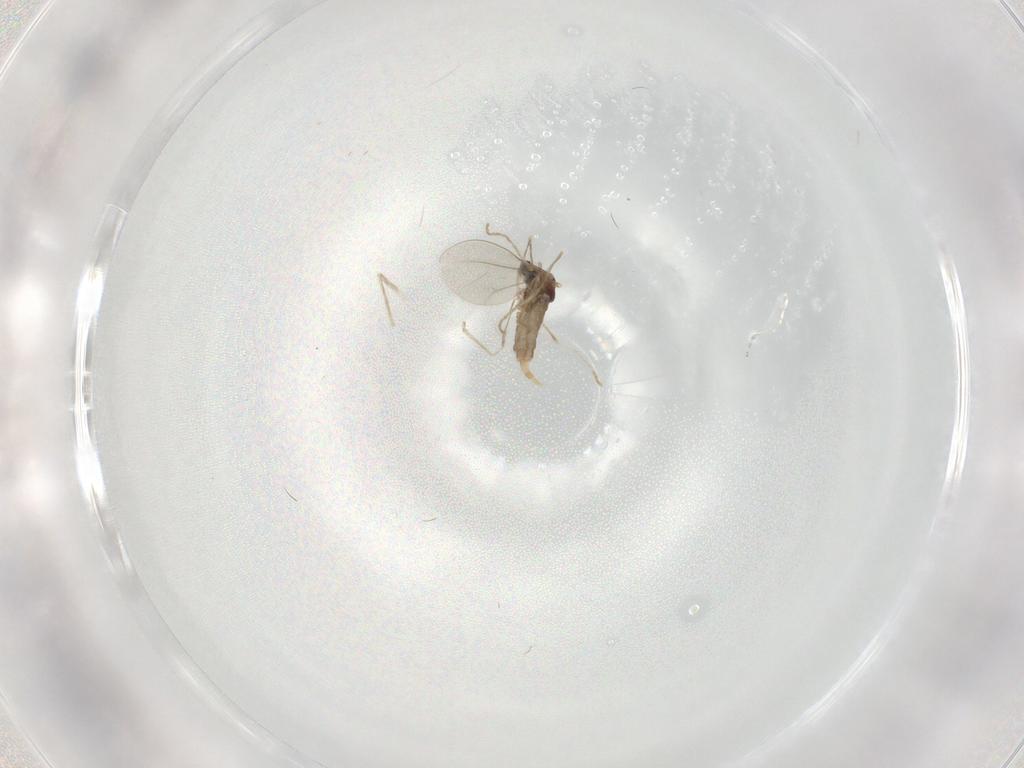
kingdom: Animalia
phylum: Arthropoda
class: Insecta
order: Diptera
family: Cecidomyiidae
